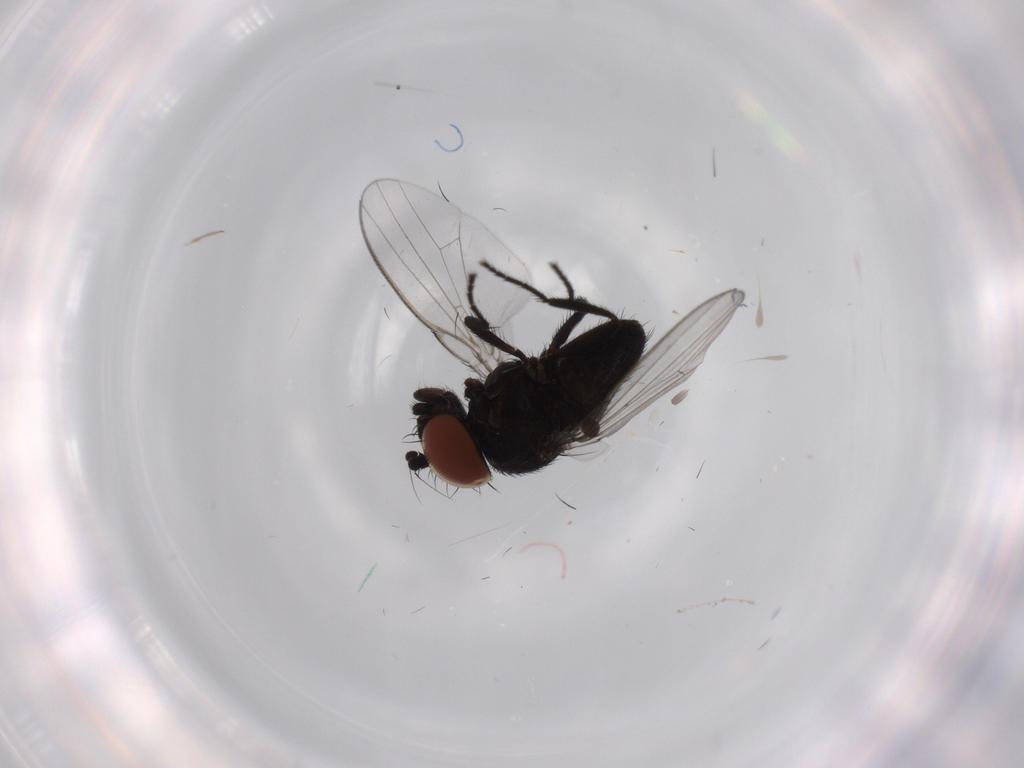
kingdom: Animalia
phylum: Arthropoda
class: Insecta
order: Diptera
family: Milichiidae
